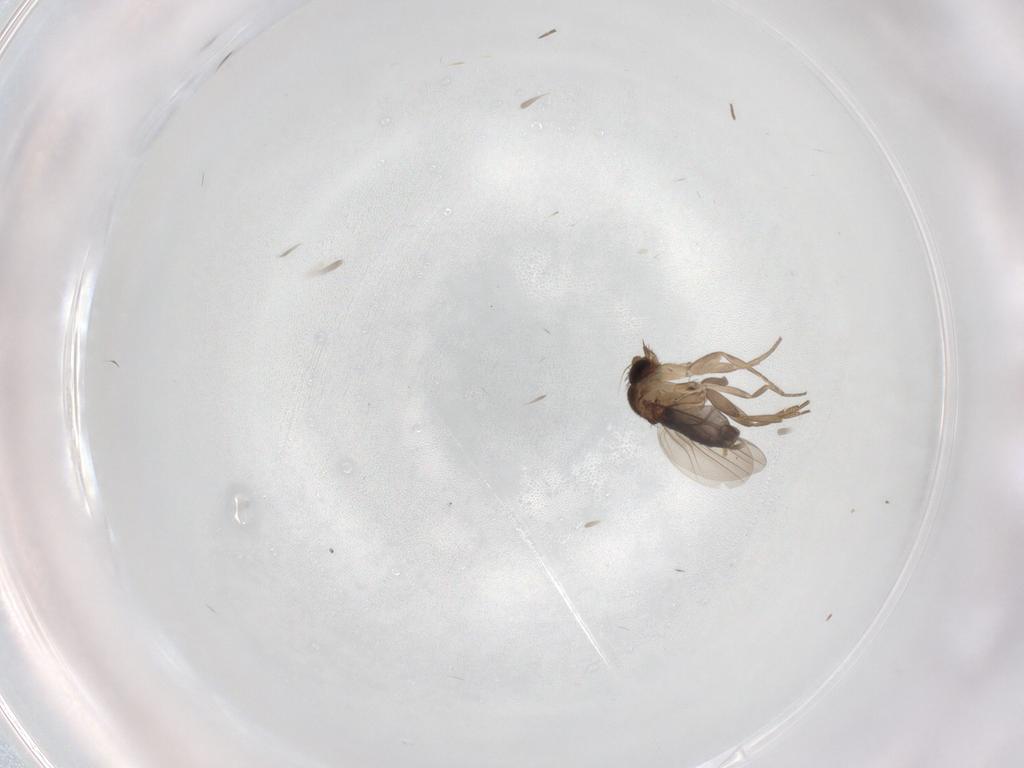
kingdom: Animalia
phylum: Arthropoda
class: Insecta
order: Diptera
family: Phoridae
